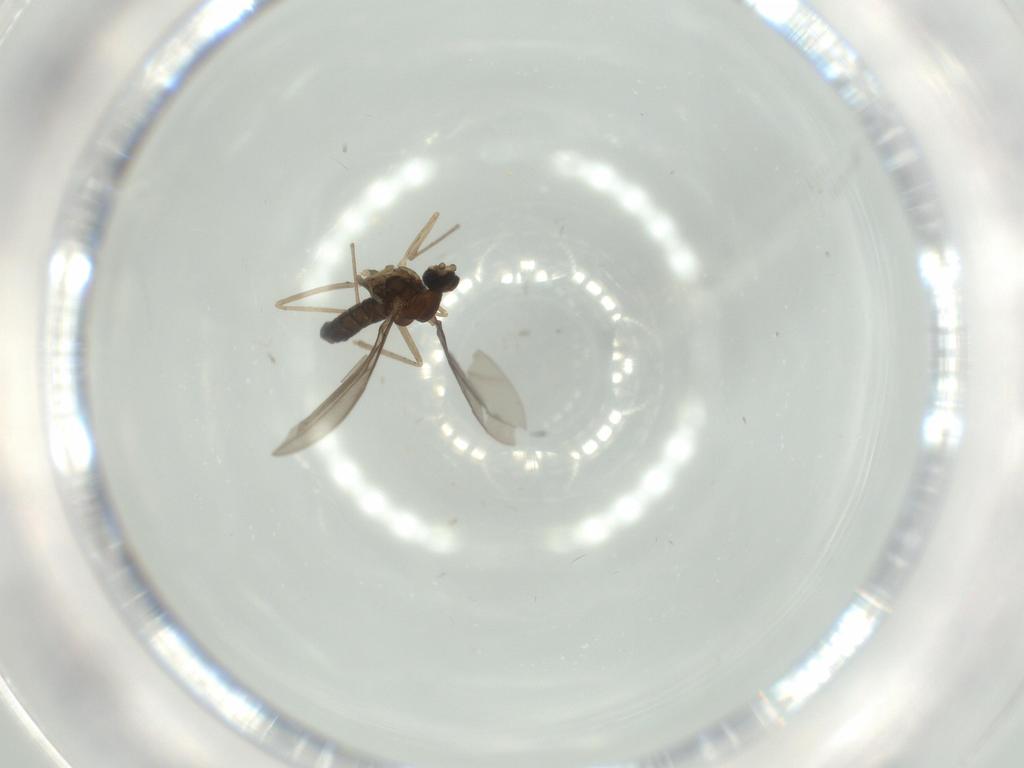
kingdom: Animalia
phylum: Arthropoda
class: Insecta
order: Diptera
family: Cecidomyiidae
